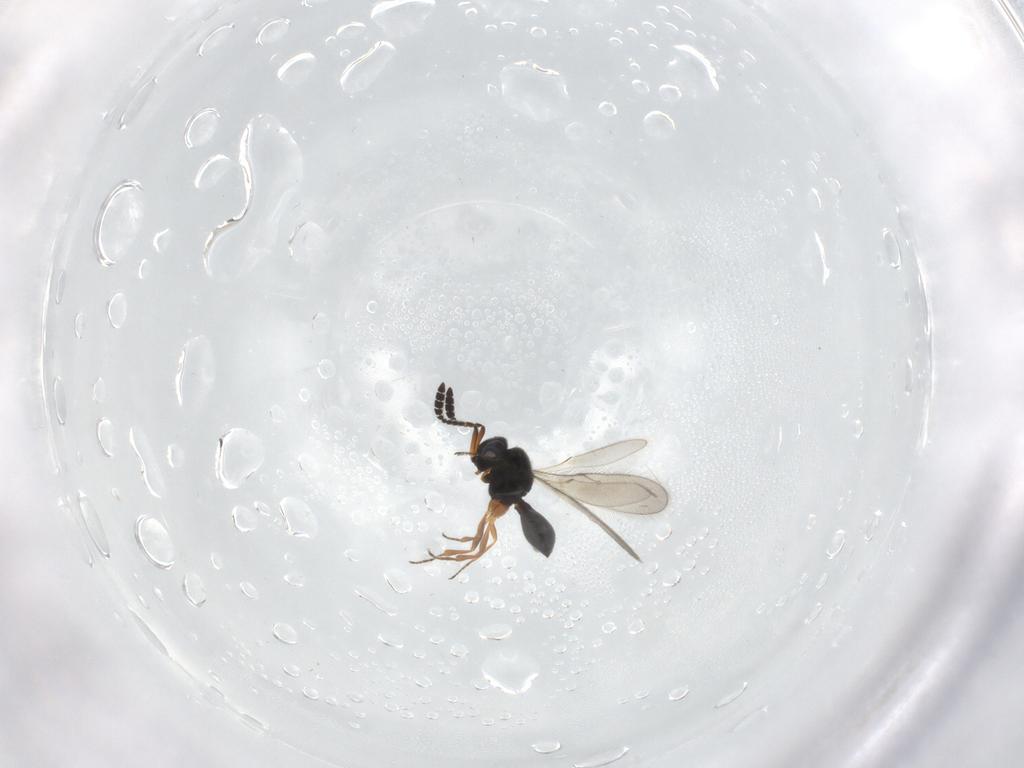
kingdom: Animalia
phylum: Arthropoda
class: Insecta
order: Hymenoptera
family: Scelionidae
